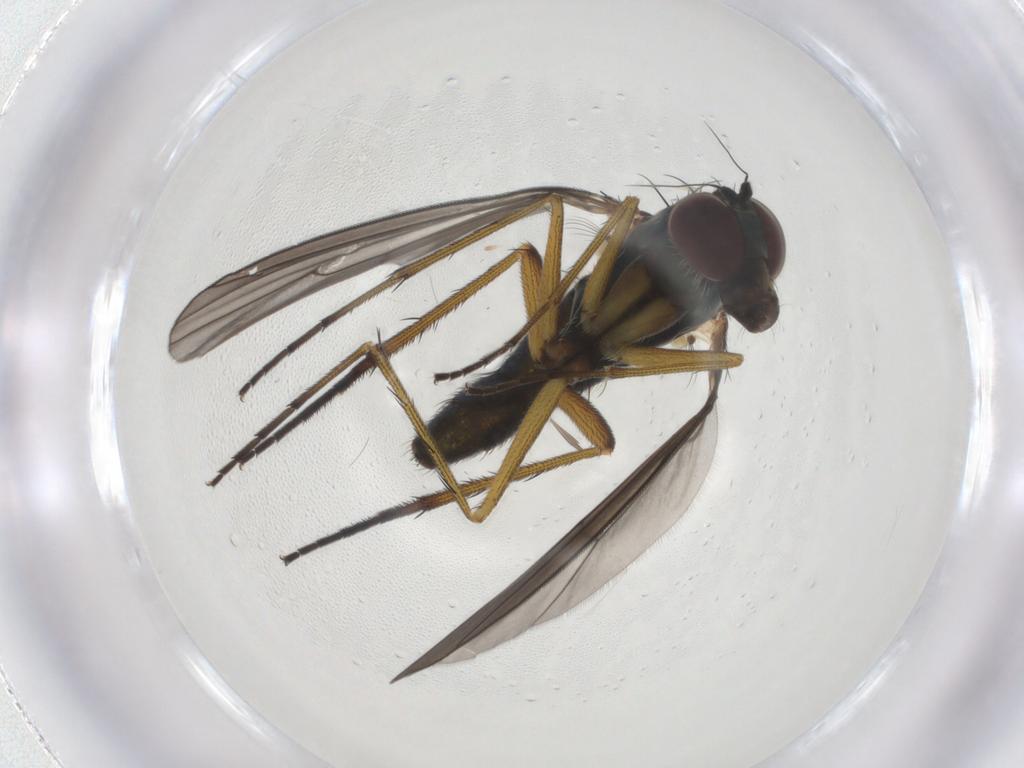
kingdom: Animalia
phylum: Arthropoda
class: Insecta
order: Diptera
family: Dolichopodidae
